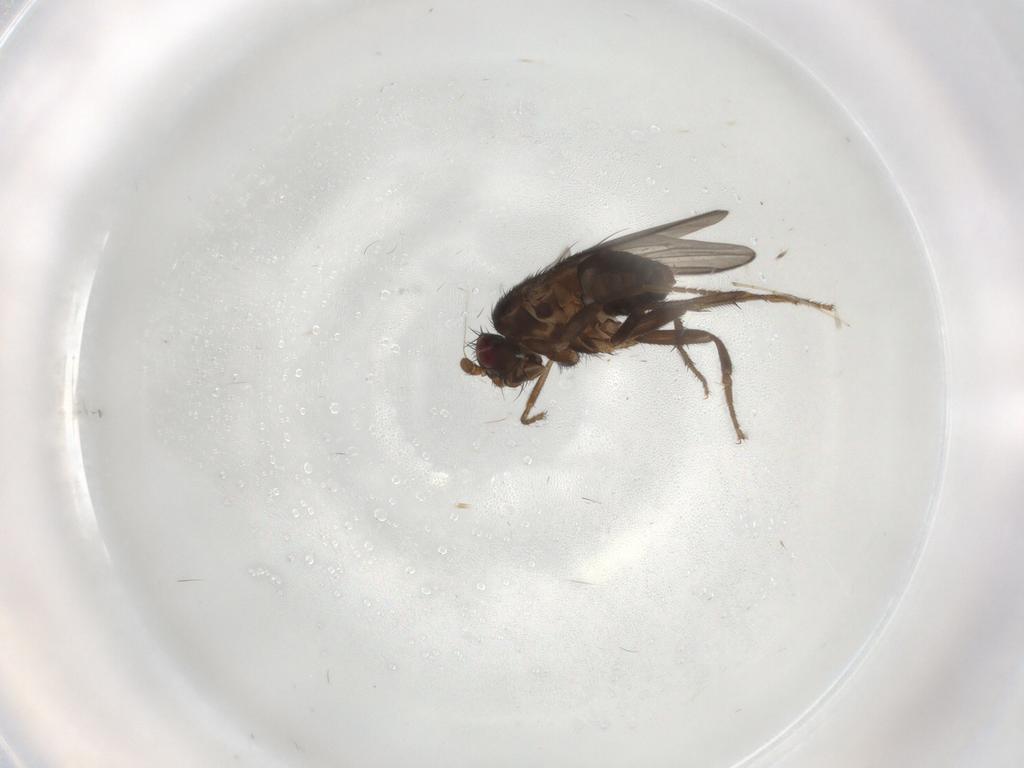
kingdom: Animalia
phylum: Arthropoda
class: Insecta
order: Diptera
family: Sphaeroceridae
